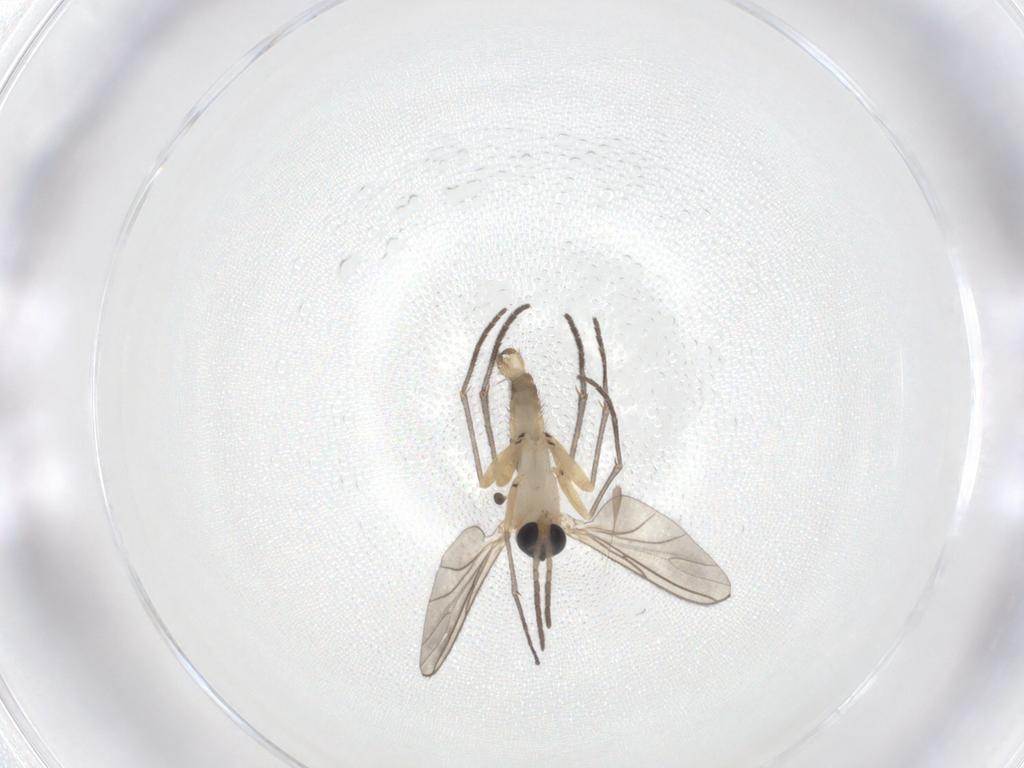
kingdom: Animalia
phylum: Arthropoda
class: Insecta
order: Diptera
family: Sciaridae
